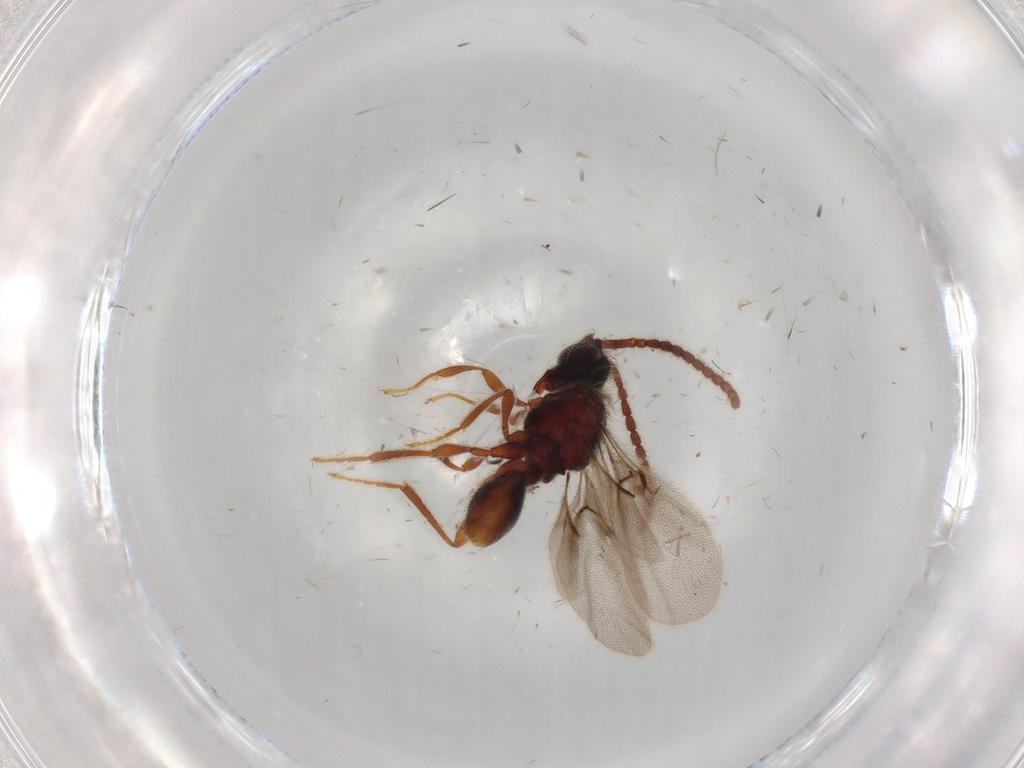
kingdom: Animalia
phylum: Arthropoda
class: Insecta
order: Hymenoptera
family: Diapriidae
